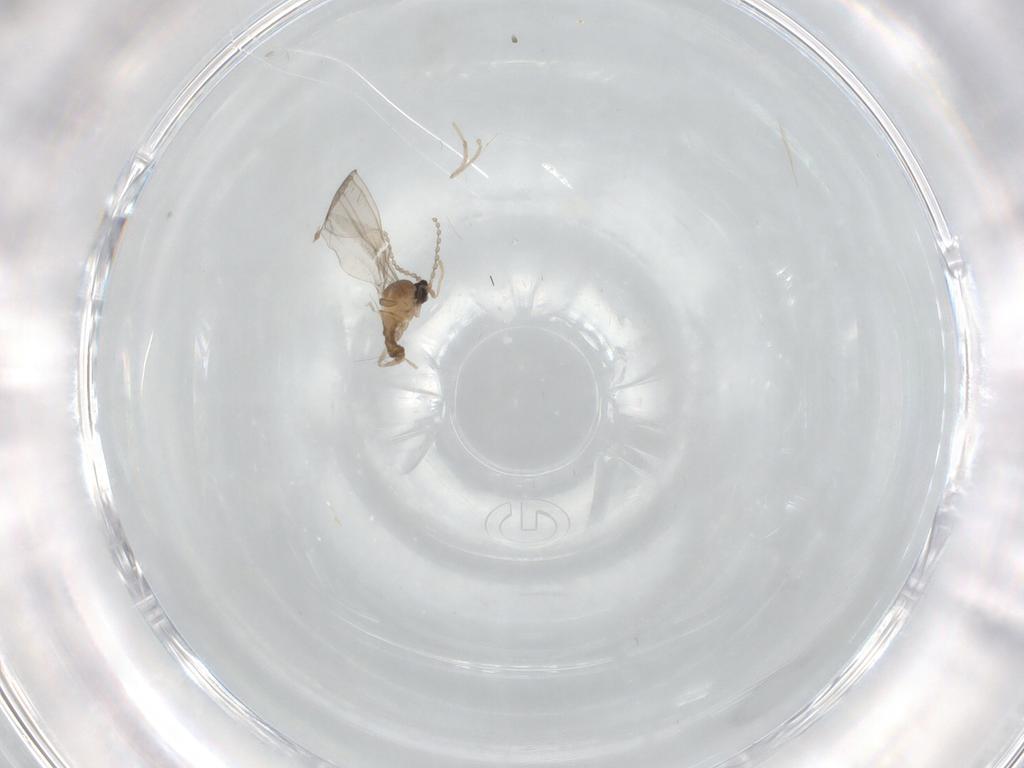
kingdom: Animalia
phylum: Arthropoda
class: Insecta
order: Diptera
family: Cecidomyiidae
